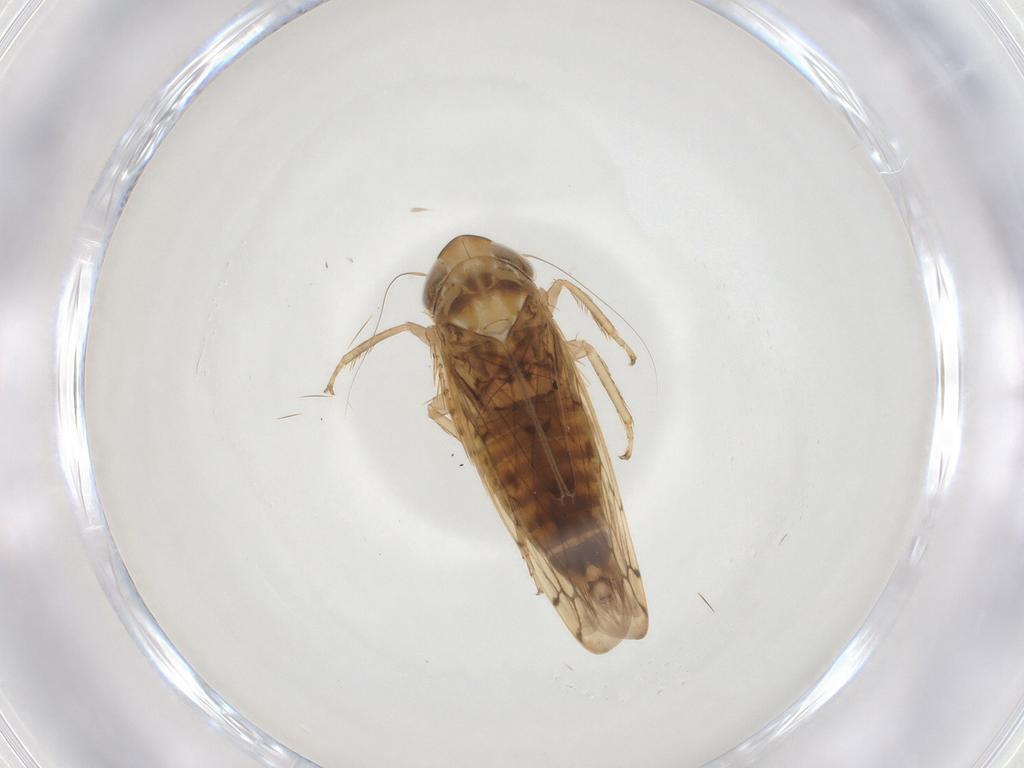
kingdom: Animalia
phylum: Arthropoda
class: Insecta
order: Hemiptera
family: Cicadellidae
